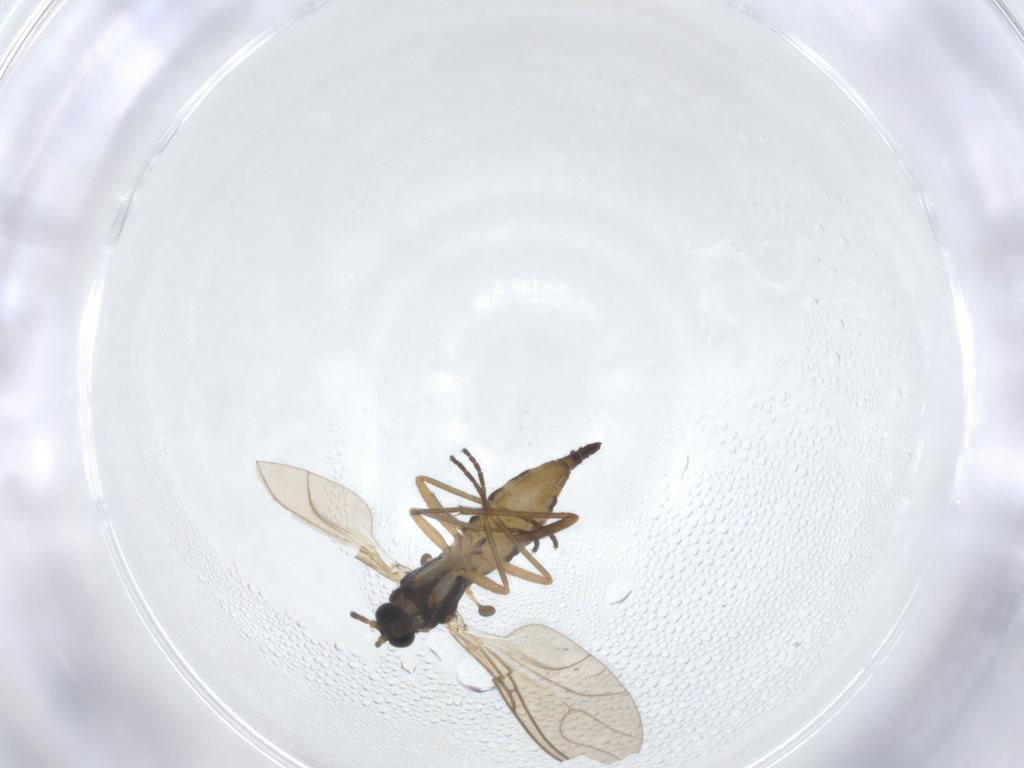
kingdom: Animalia
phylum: Arthropoda
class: Insecta
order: Diptera
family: Sciaridae
